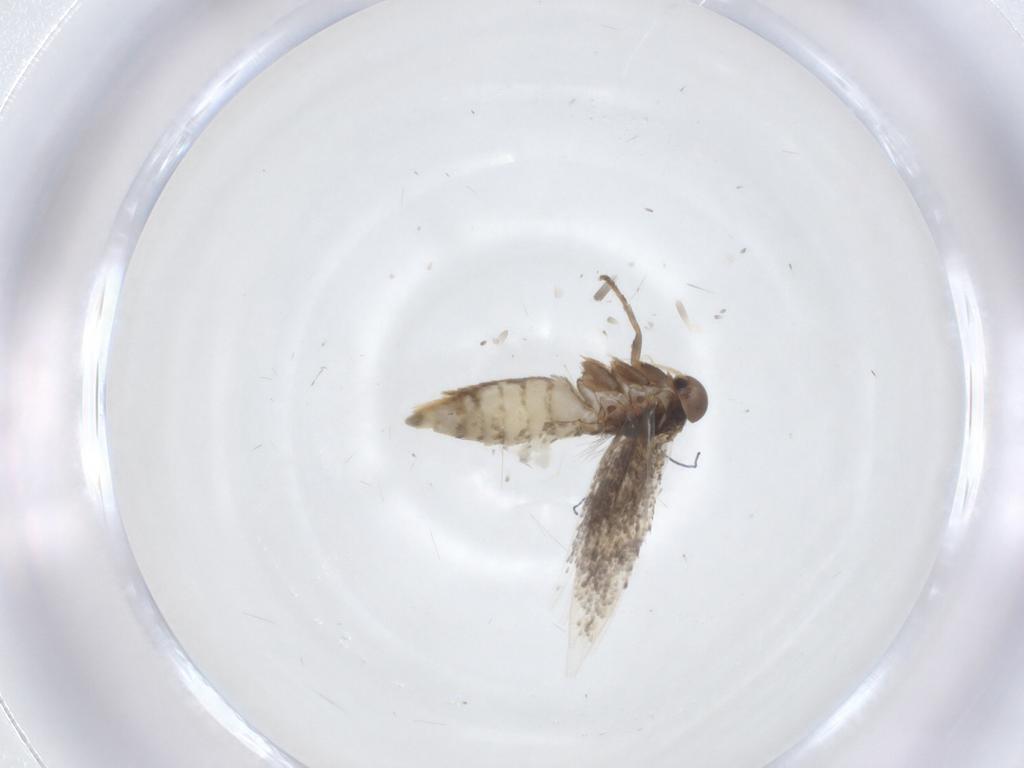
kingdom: Animalia
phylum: Arthropoda
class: Insecta
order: Lepidoptera
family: Elachistidae
